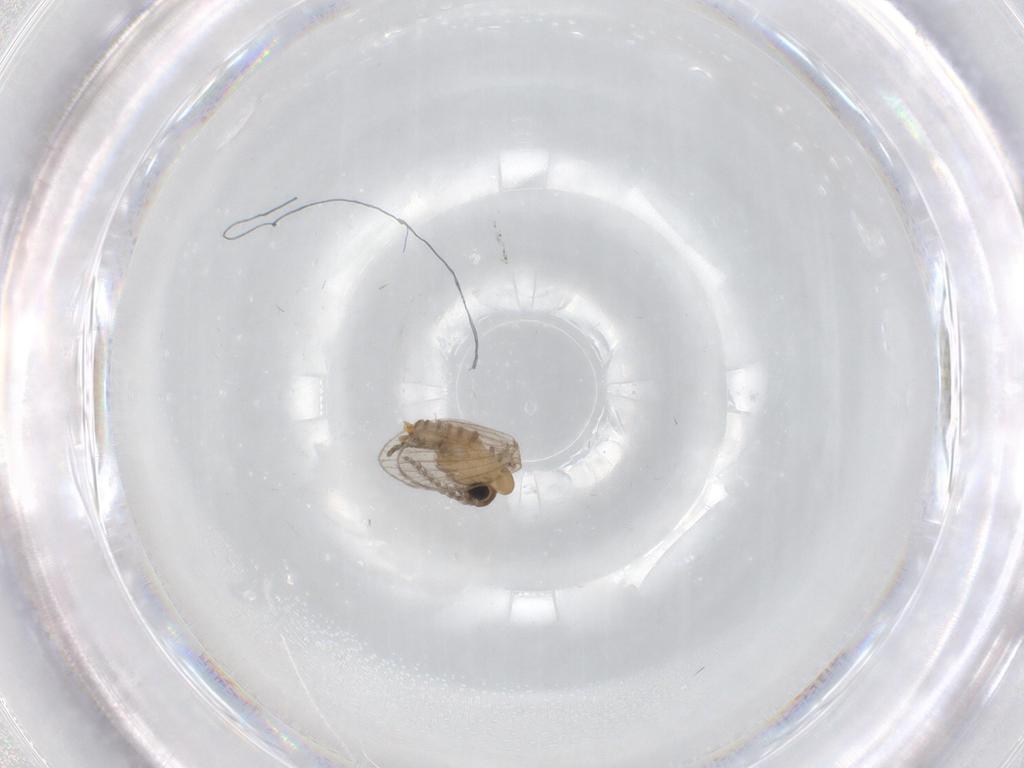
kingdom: Animalia
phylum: Arthropoda
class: Insecta
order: Diptera
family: Psychodidae
